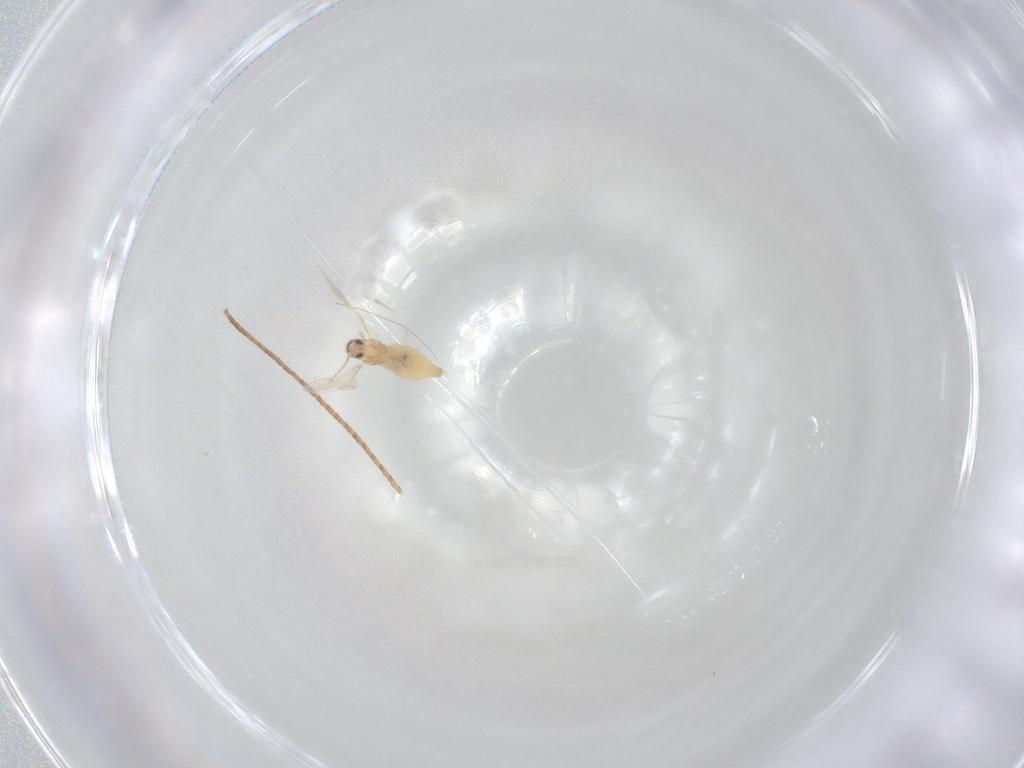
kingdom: Animalia
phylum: Arthropoda
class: Insecta
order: Diptera
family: Cecidomyiidae
